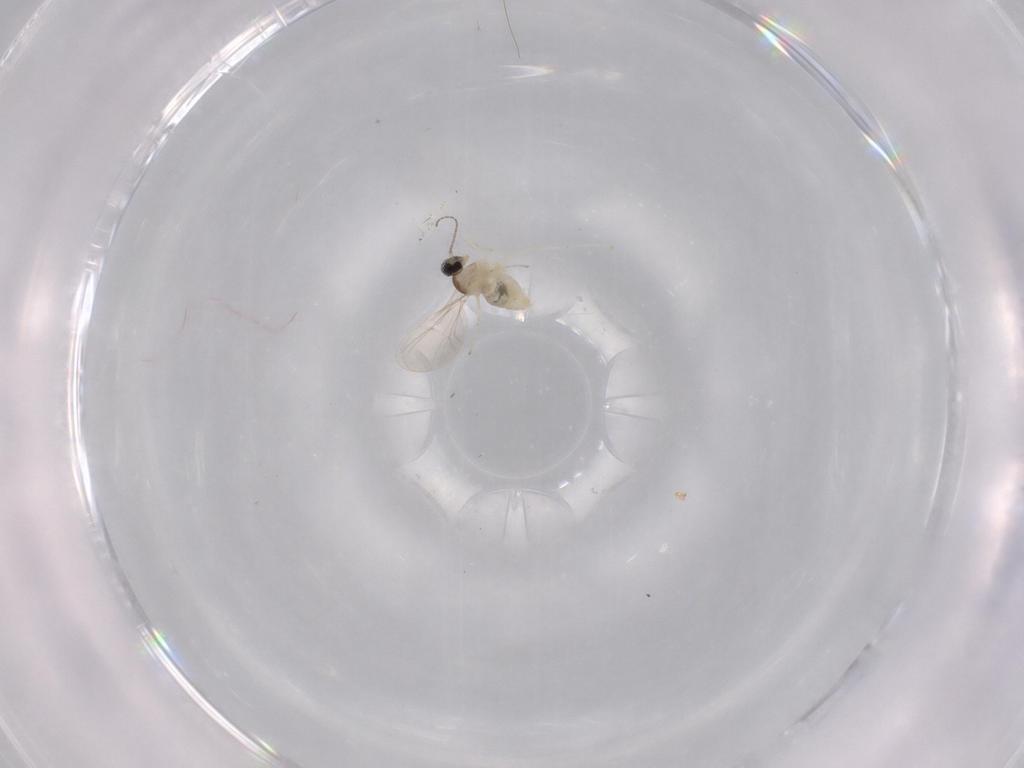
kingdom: Animalia
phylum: Arthropoda
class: Insecta
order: Diptera
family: Cecidomyiidae
